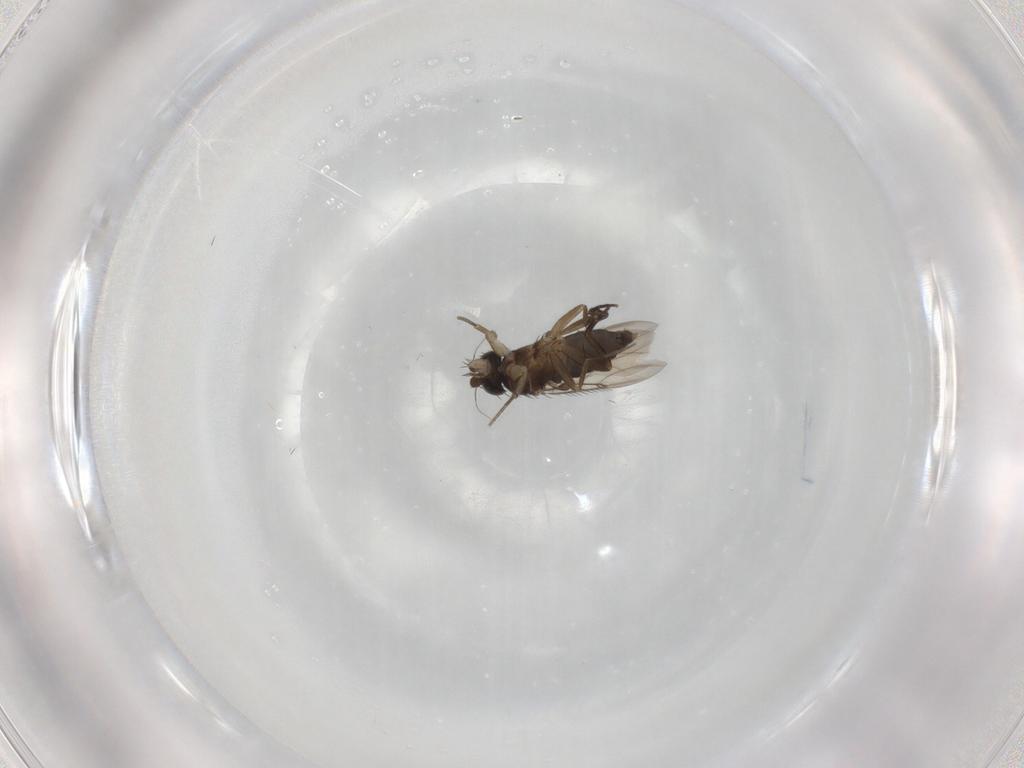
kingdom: Animalia
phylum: Arthropoda
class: Insecta
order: Diptera
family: Phoridae
